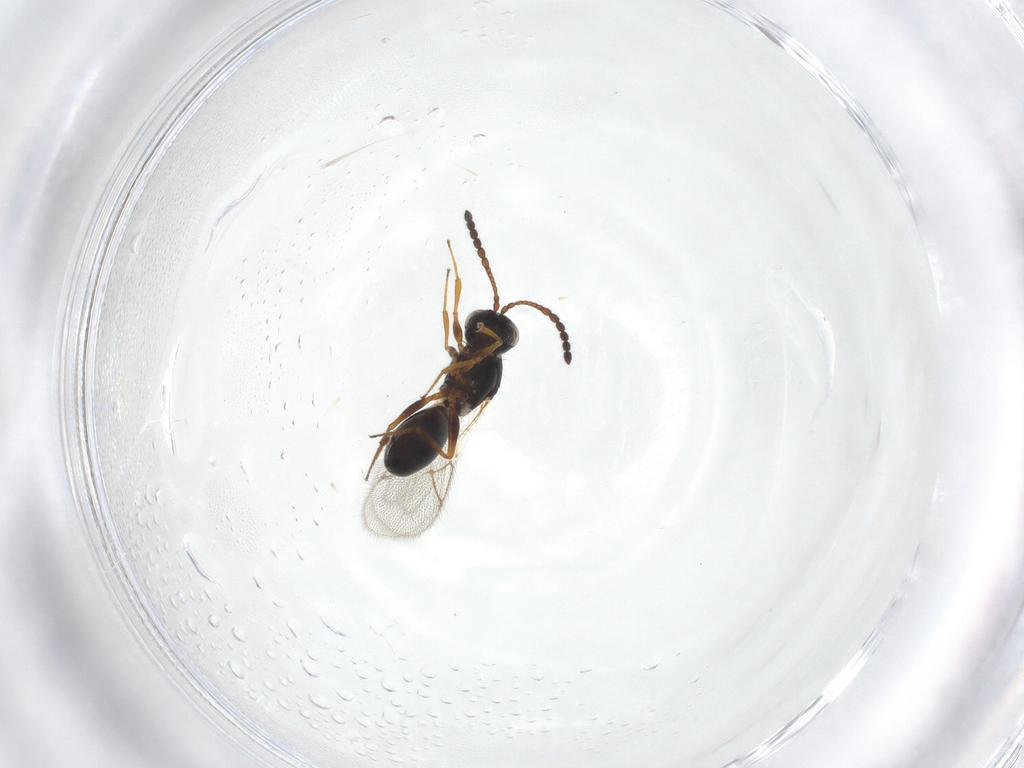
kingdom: Animalia
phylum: Arthropoda
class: Insecta
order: Hymenoptera
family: Figitidae
